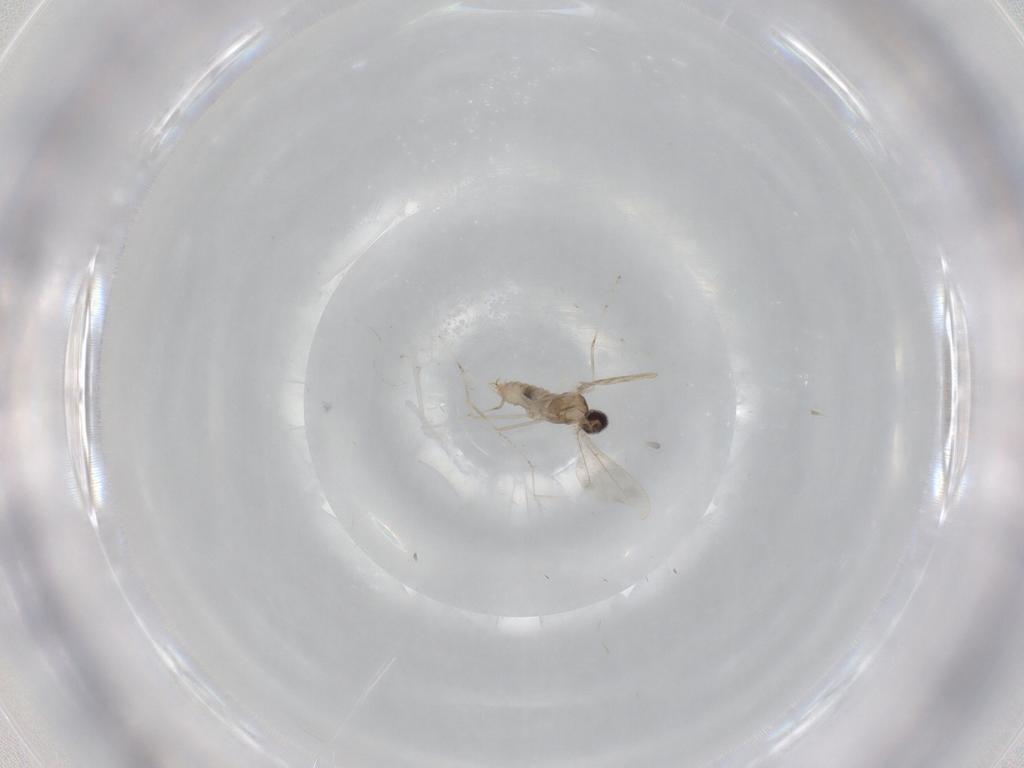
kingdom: Animalia
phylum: Arthropoda
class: Insecta
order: Diptera
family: Cecidomyiidae
